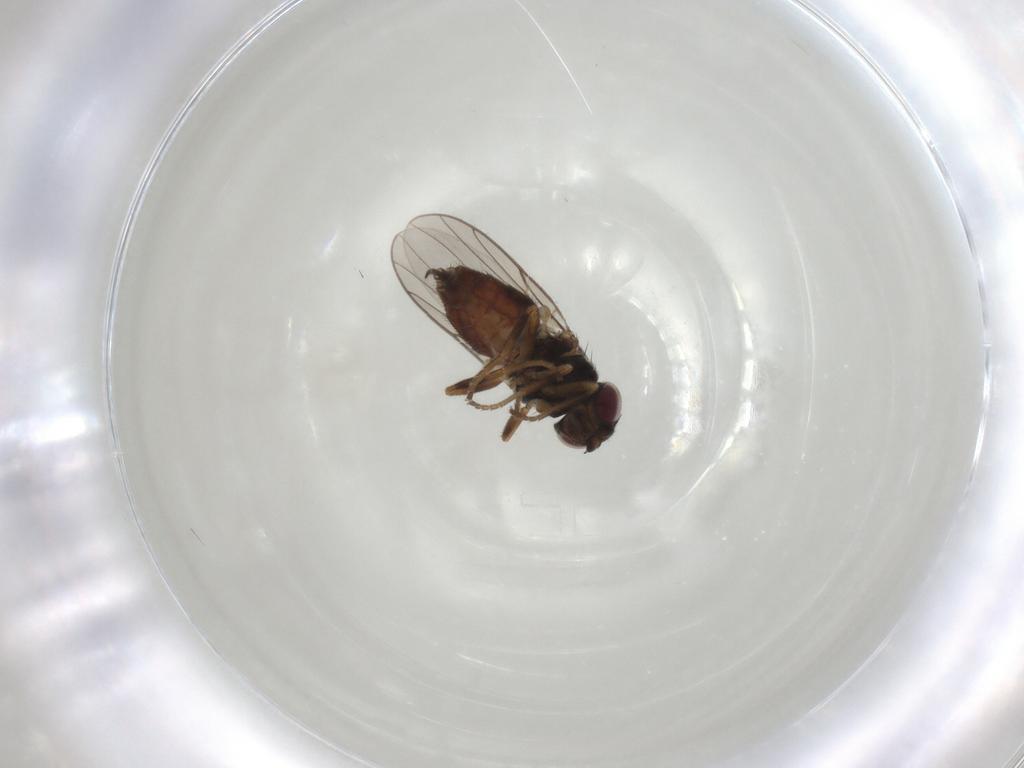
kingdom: Animalia
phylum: Arthropoda
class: Insecta
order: Diptera
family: Chloropidae
